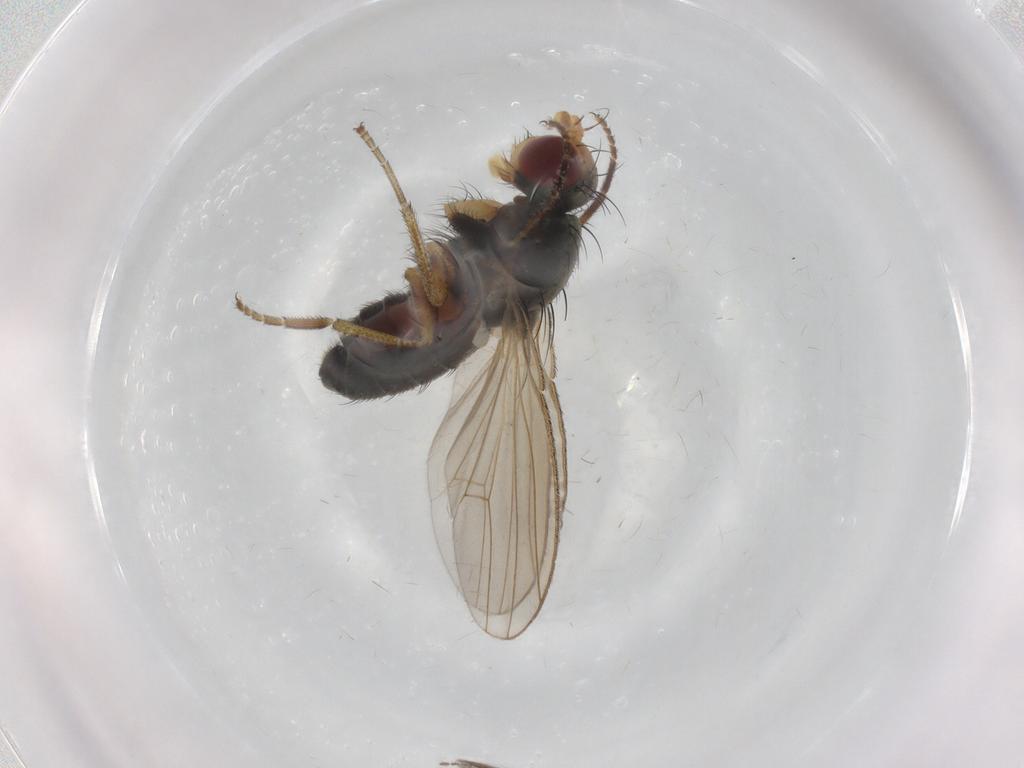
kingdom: Animalia
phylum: Arthropoda
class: Insecta
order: Diptera
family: Heleomyzidae
